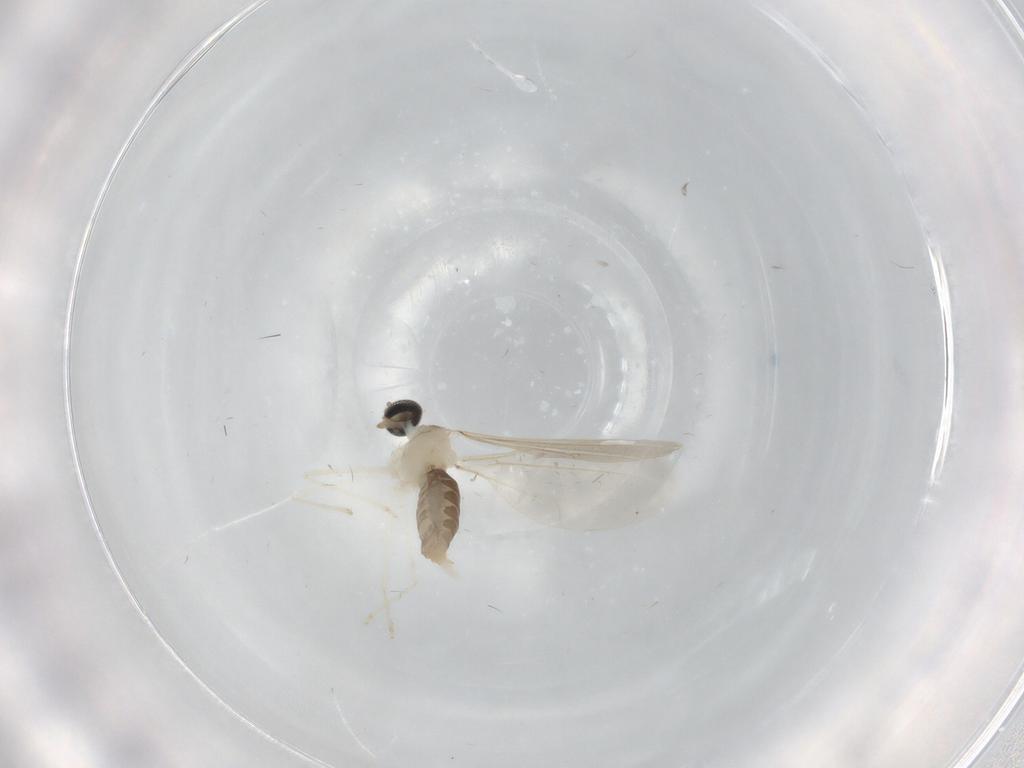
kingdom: Animalia
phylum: Arthropoda
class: Insecta
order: Diptera
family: Cecidomyiidae
